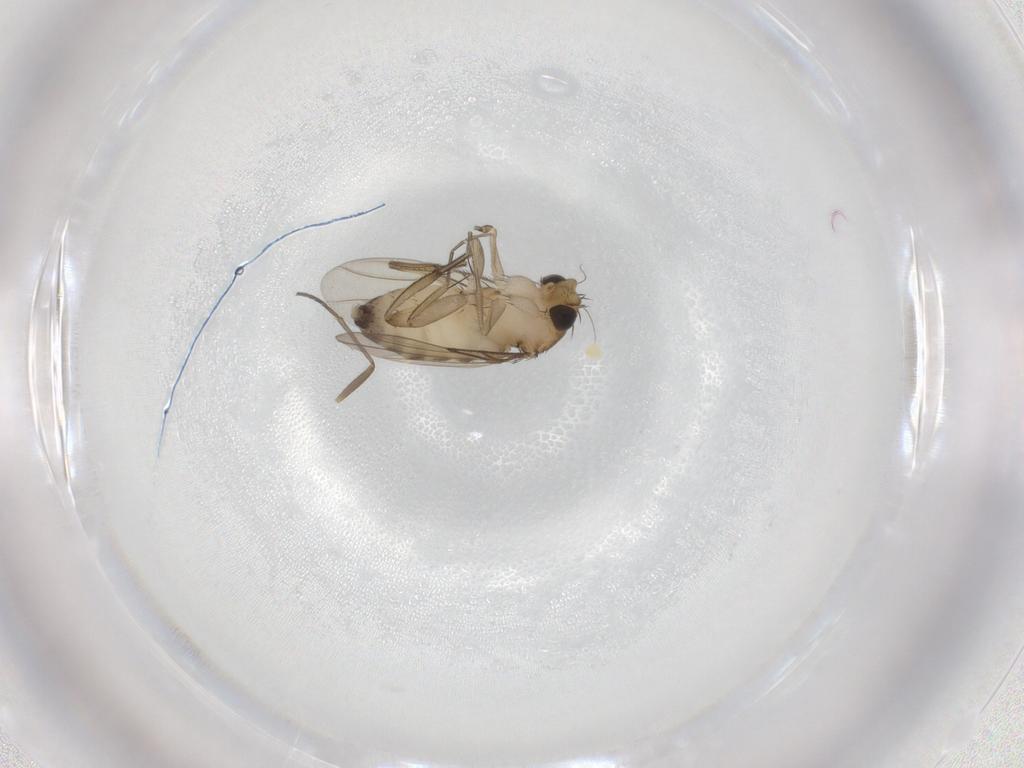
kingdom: Animalia
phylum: Arthropoda
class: Insecta
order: Diptera
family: Phoridae
